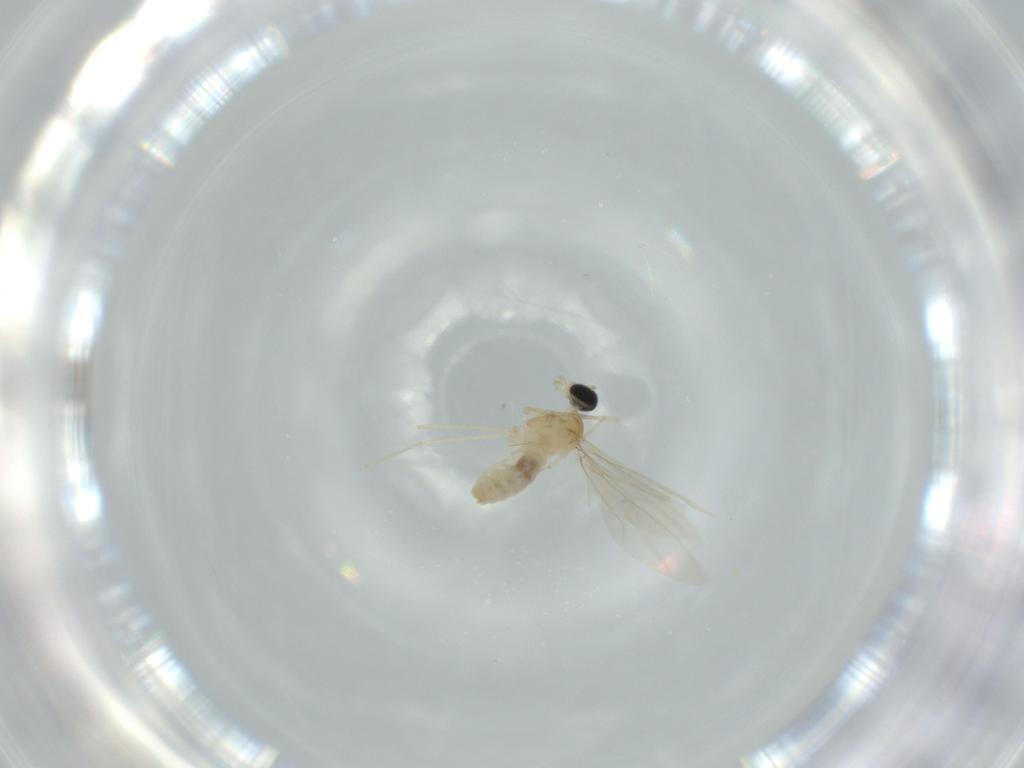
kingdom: Animalia
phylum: Arthropoda
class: Insecta
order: Diptera
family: Cecidomyiidae
